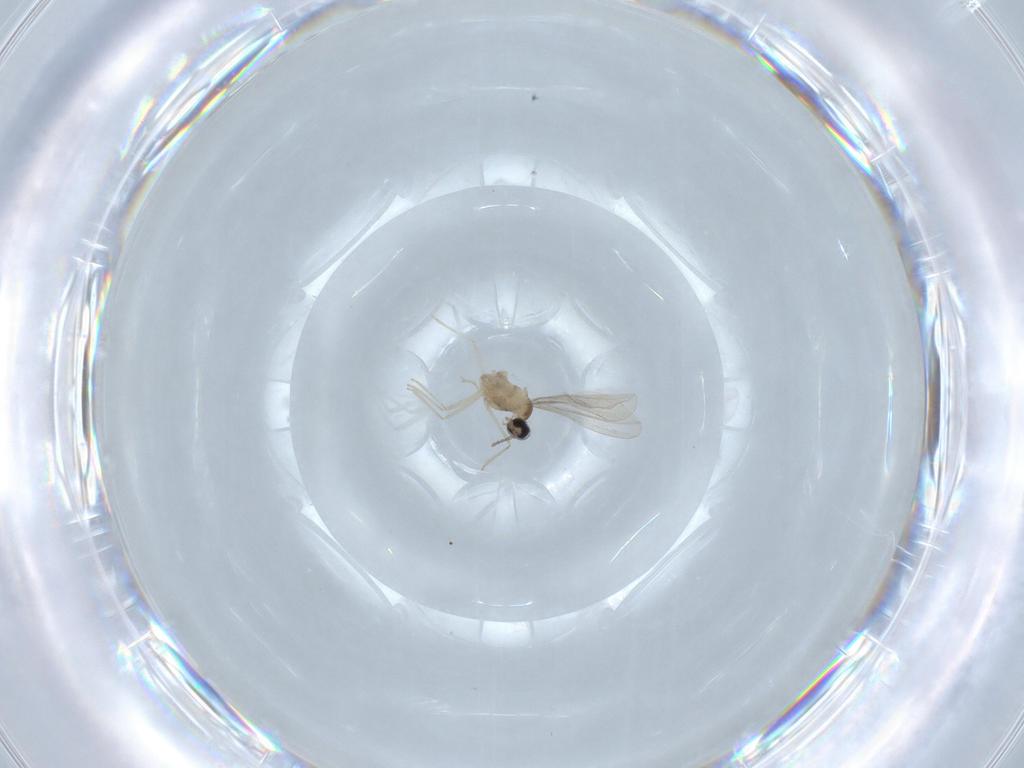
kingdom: Animalia
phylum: Arthropoda
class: Insecta
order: Diptera
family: Cecidomyiidae
